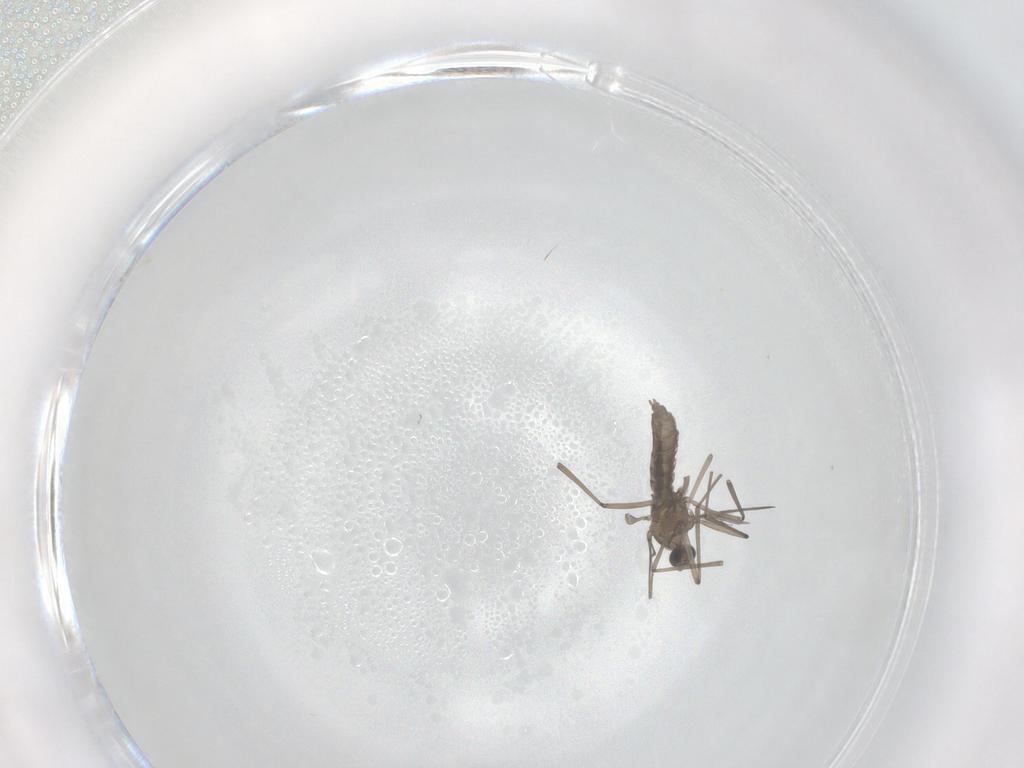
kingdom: Animalia
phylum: Arthropoda
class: Insecta
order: Diptera
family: Cecidomyiidae
